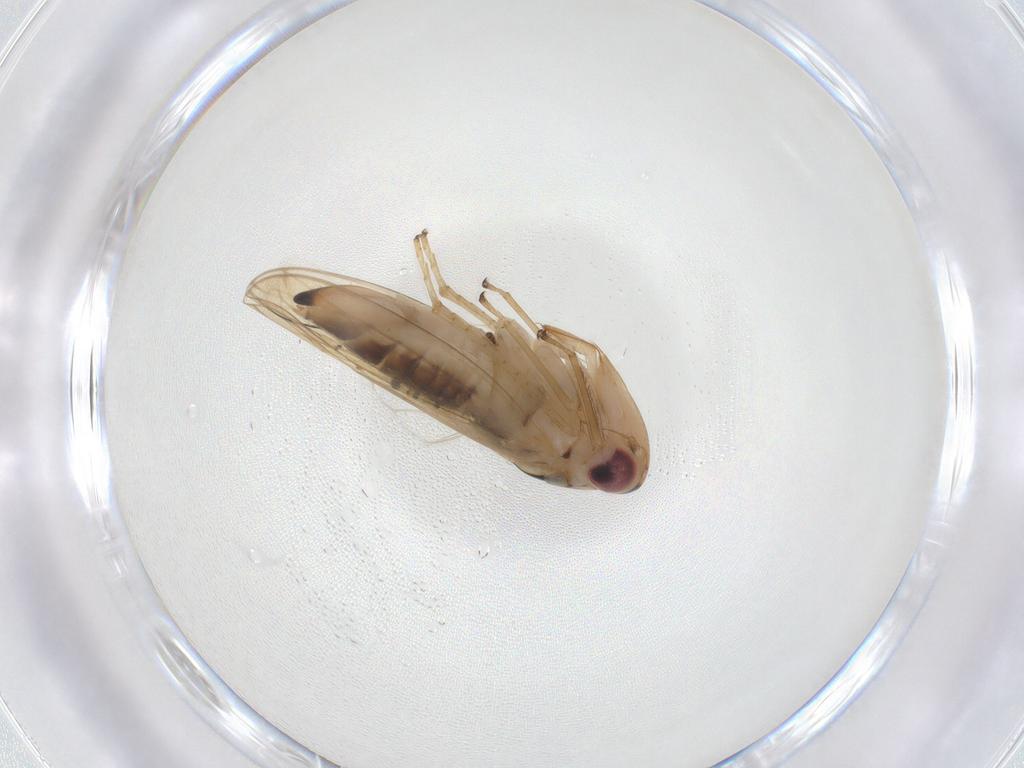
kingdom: Animalia
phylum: Arthropoda
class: Insecta
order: Hemiptera
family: Cicadellidae
